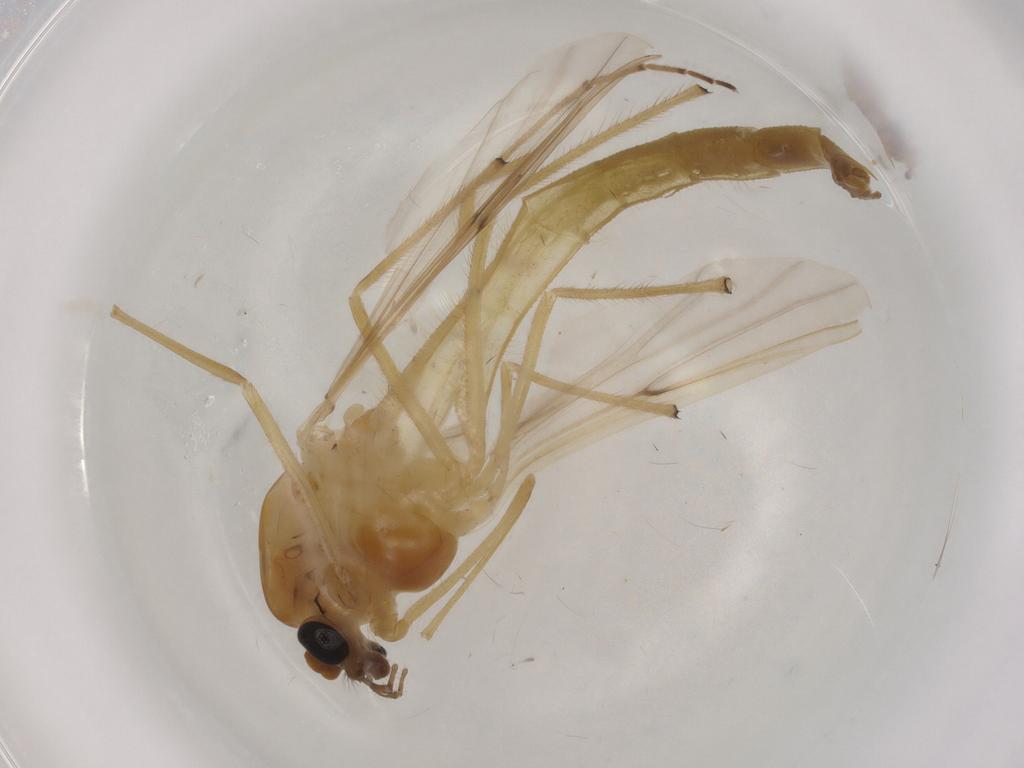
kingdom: Animalia
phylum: Arthropoda
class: Insecta
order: Diptera
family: Chironomidae
